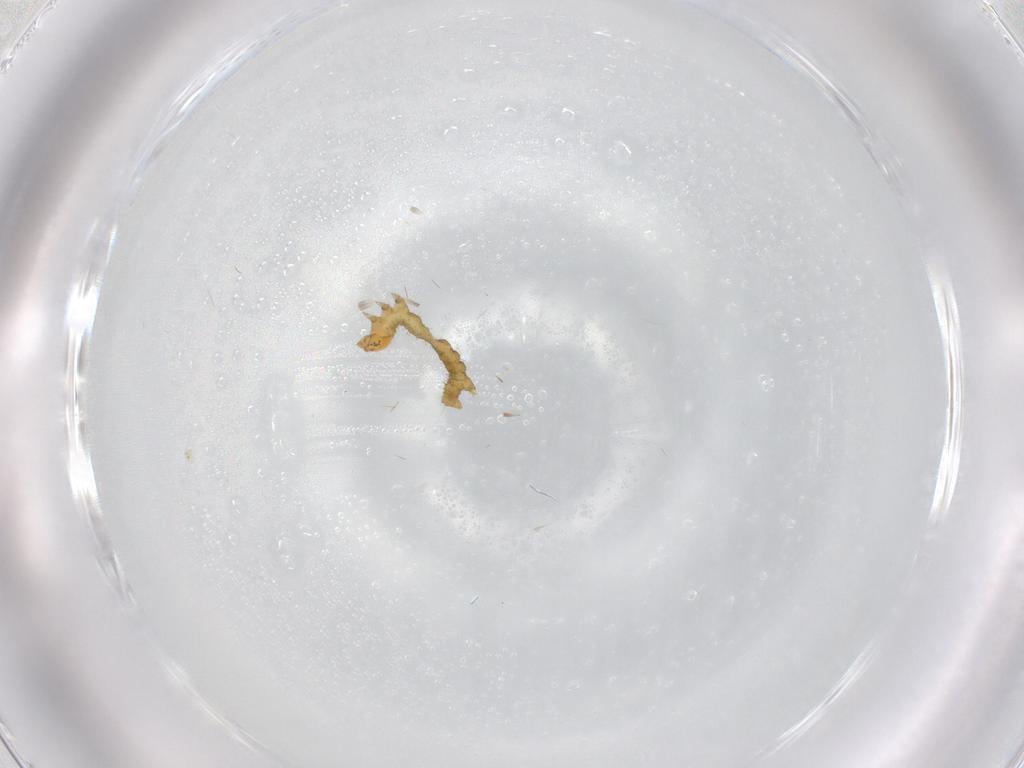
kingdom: Animalia
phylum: Arthropoda
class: Insecta
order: Lepidoptera
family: Geometridae
